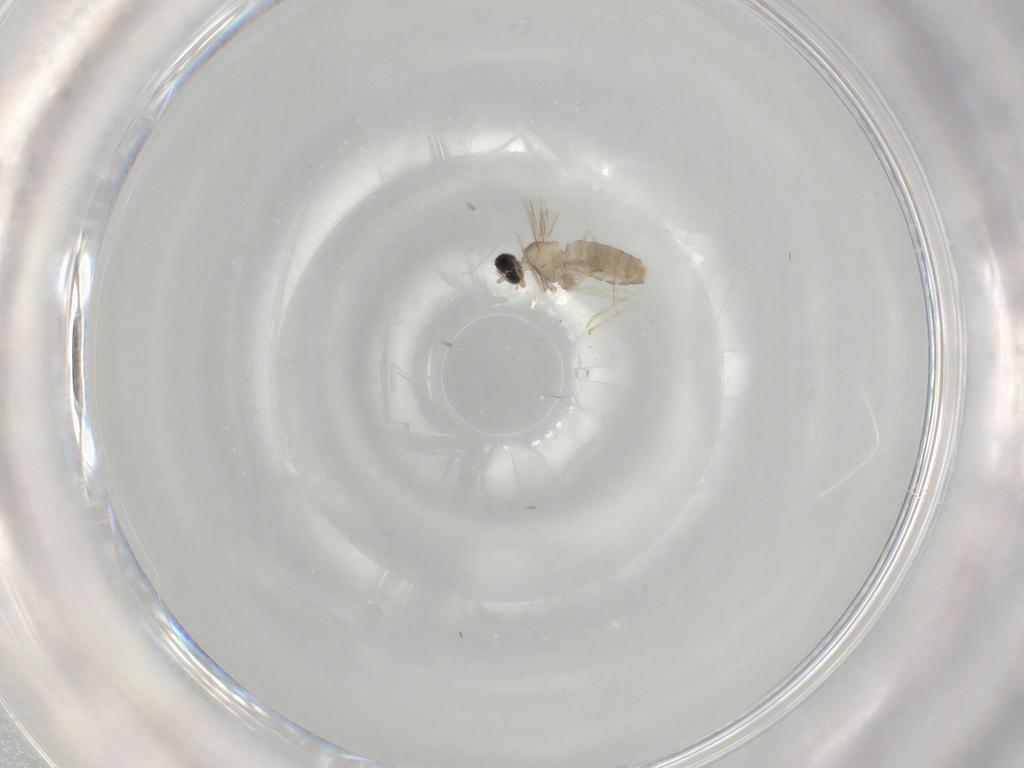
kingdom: Animalia
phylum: Arthropoda
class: Insecta
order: Diptera
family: Cecidomyiidae
